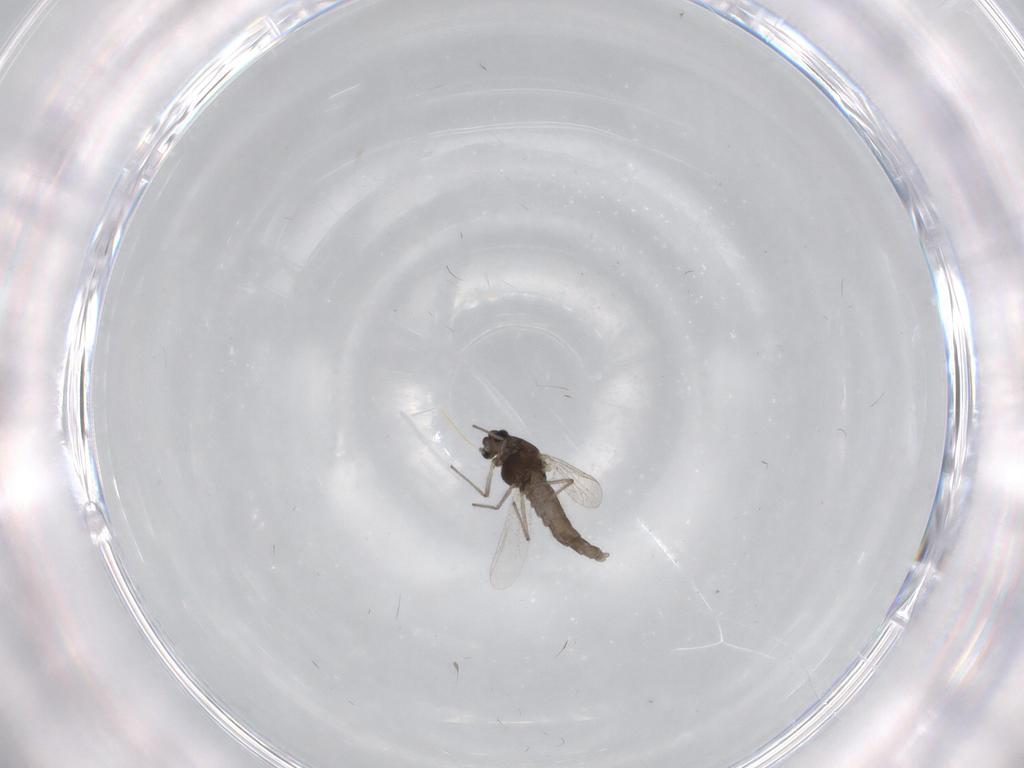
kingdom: Animalia
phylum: Arthropoda
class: Insecta
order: Diptera
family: Chironomidae
